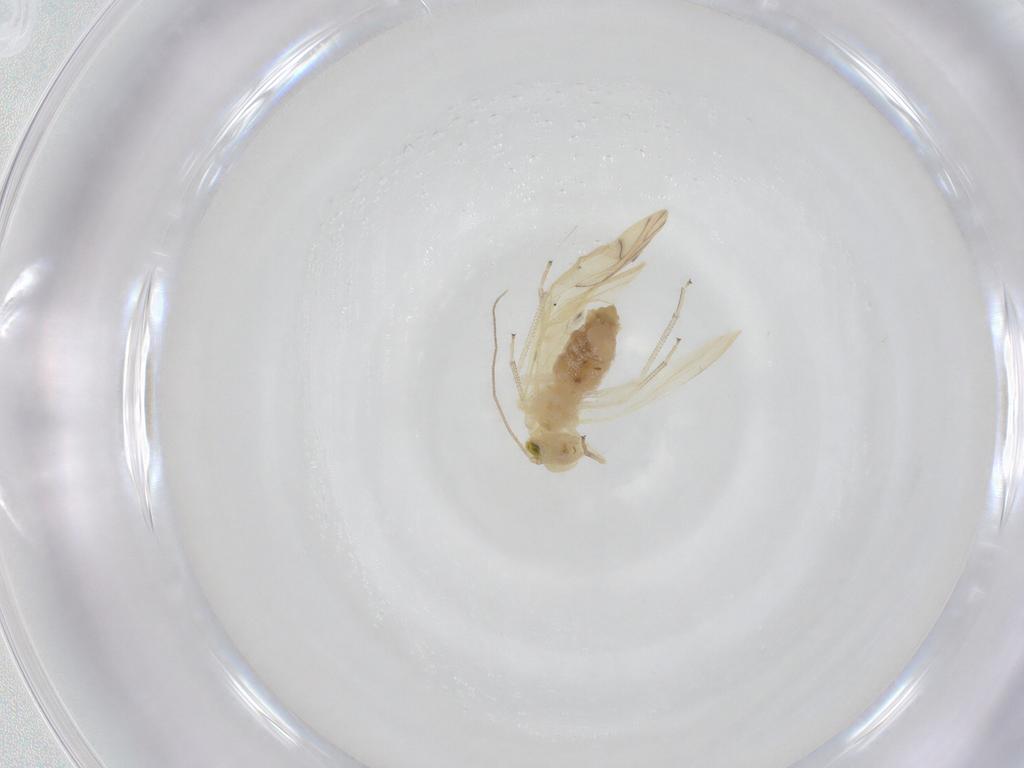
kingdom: Animalia
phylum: Arthropoda
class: Insecta
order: Psocodea
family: Caeciliusidae
